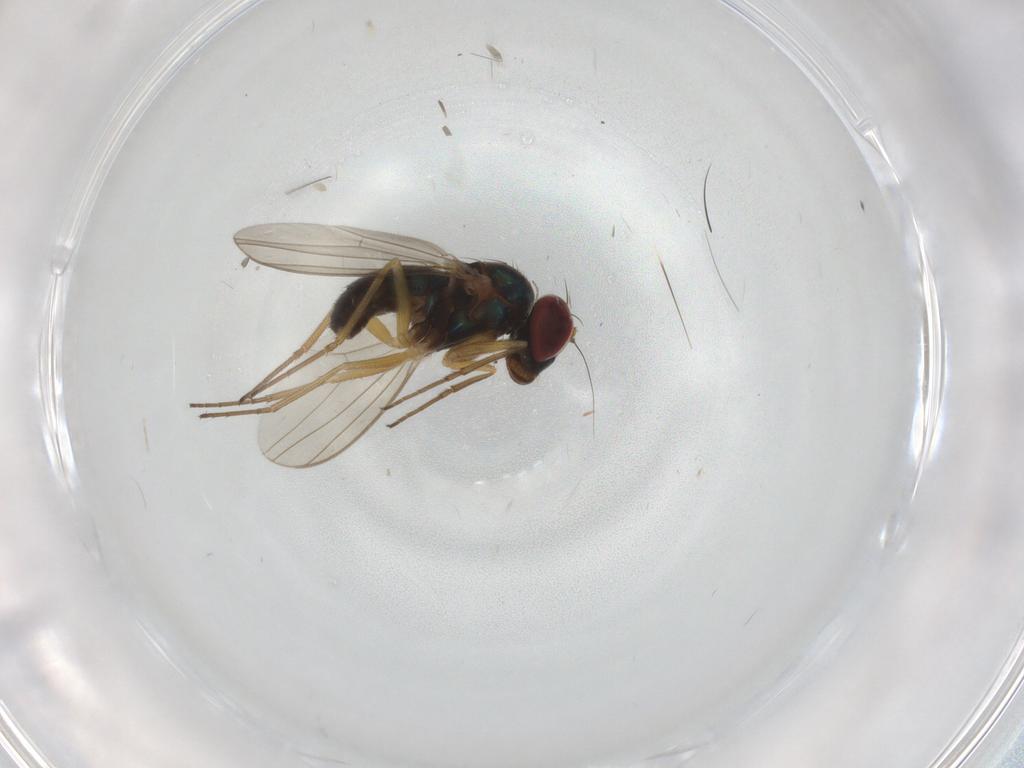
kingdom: Animalia
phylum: Arthropoda
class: Insecta
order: Diptera
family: Dolichopodidae
